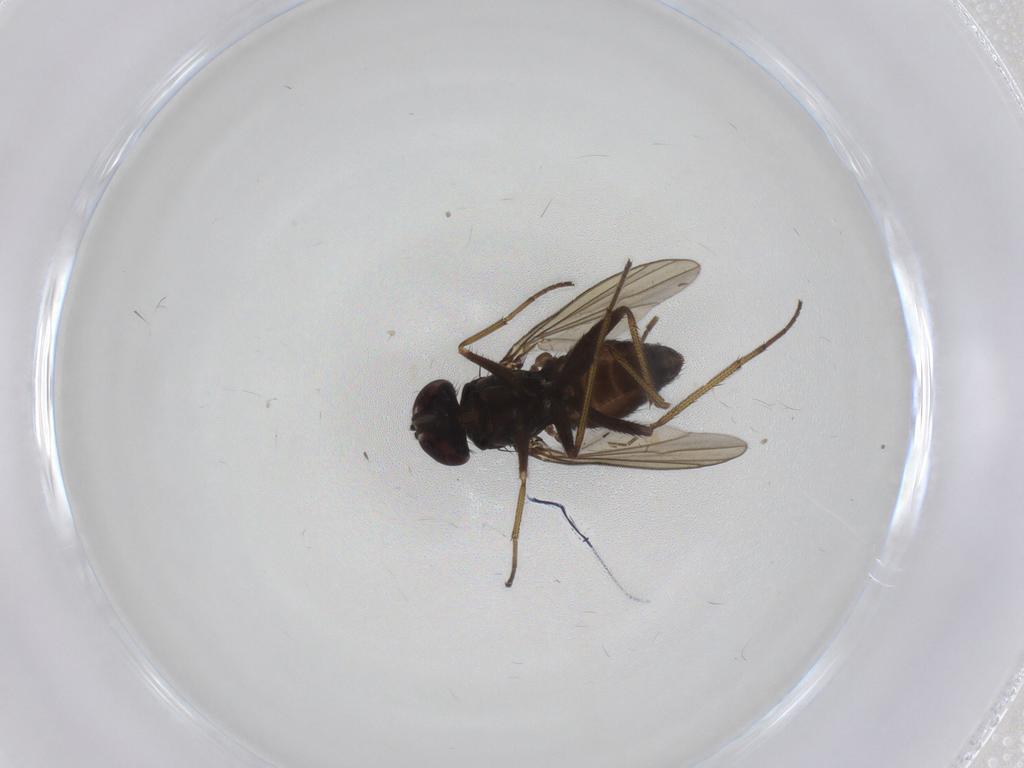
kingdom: Animalia
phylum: Arthropoda
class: Insecta
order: Diptera
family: Dolichopodidae
